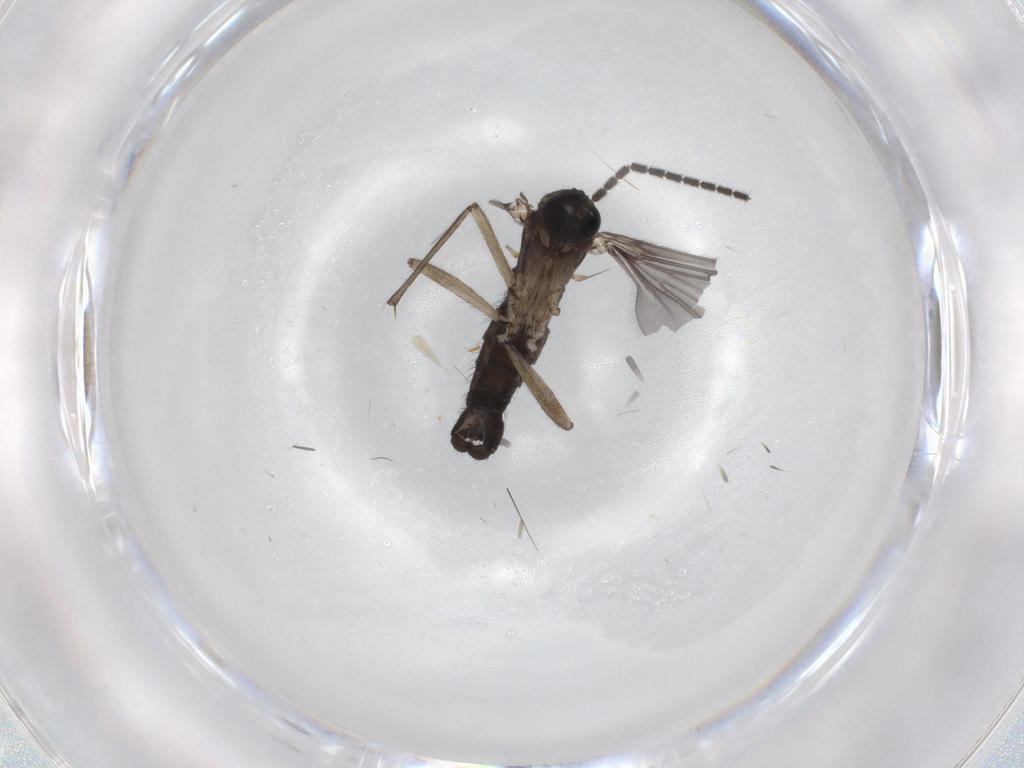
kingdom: Animalia
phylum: Arthropoda
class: Insecta
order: Diptera
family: Sciaridae
